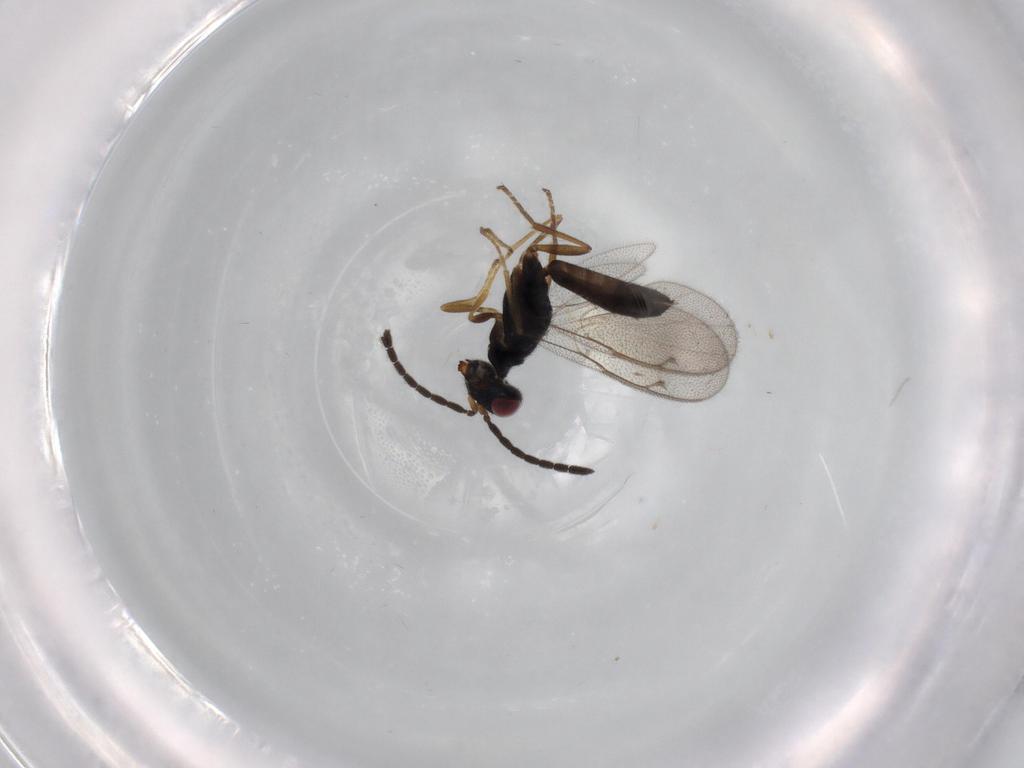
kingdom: Animalia
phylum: Arthropoda
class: Insecta
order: Hymenoptera
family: Pteromalidae
